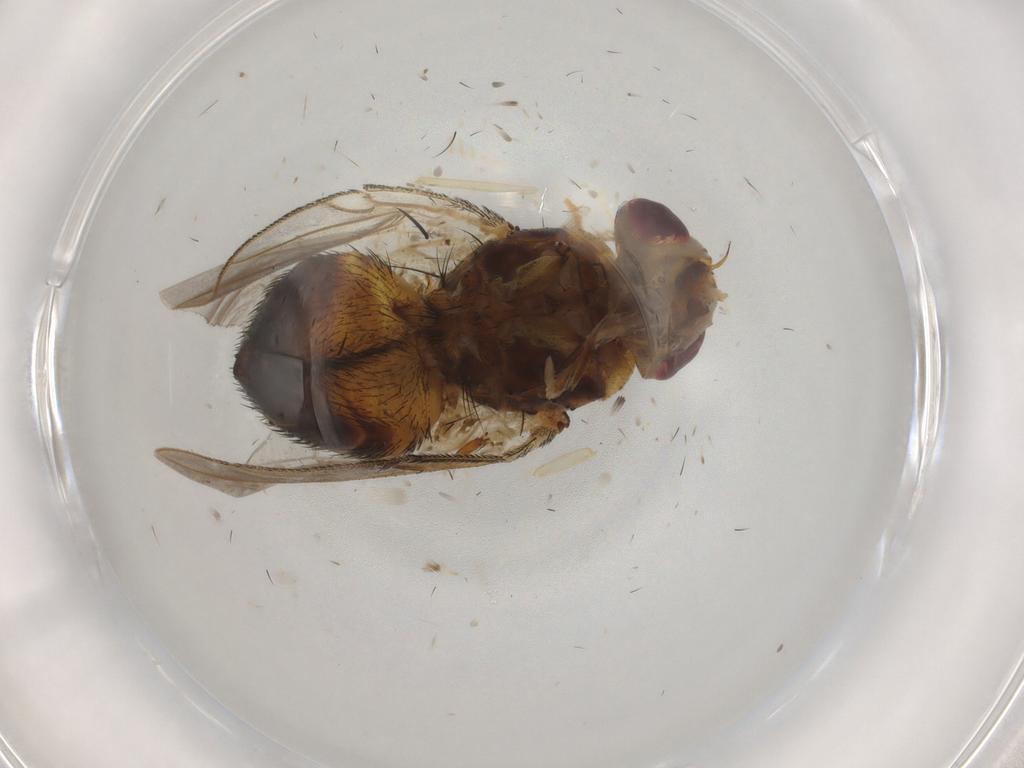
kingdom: Animalia
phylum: Arthropoda
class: Insecta
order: Diptera
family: Tachinidae
